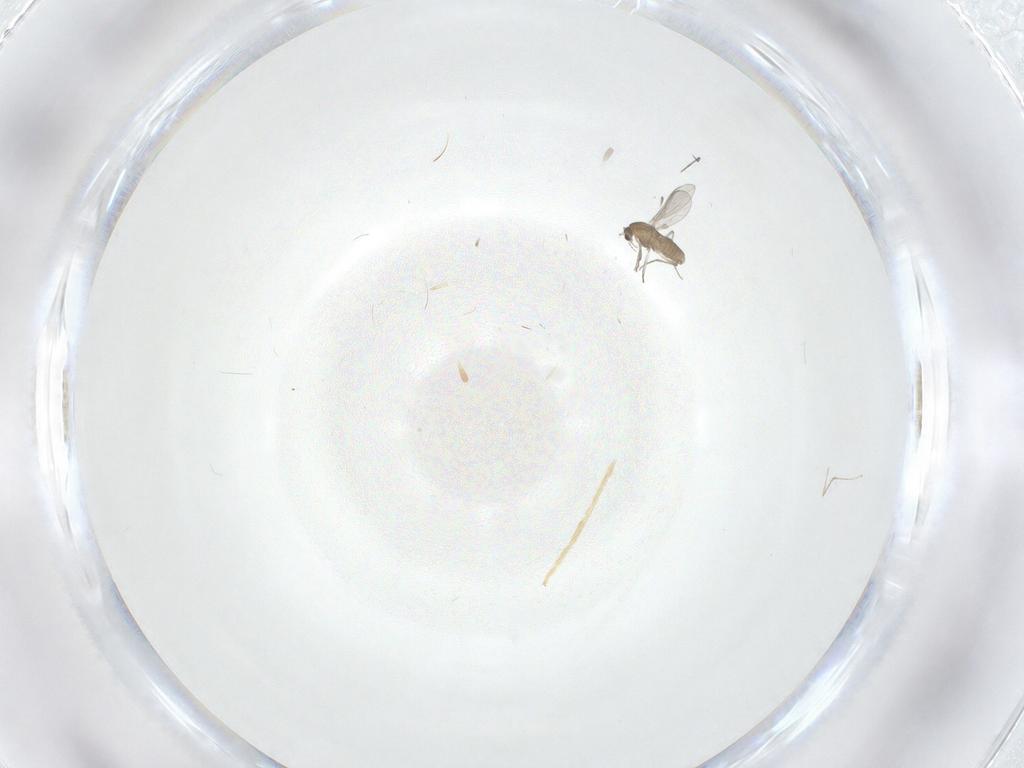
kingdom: Animalia
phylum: Arthropoda
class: Insecta
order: Diptera
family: Chironomidae
